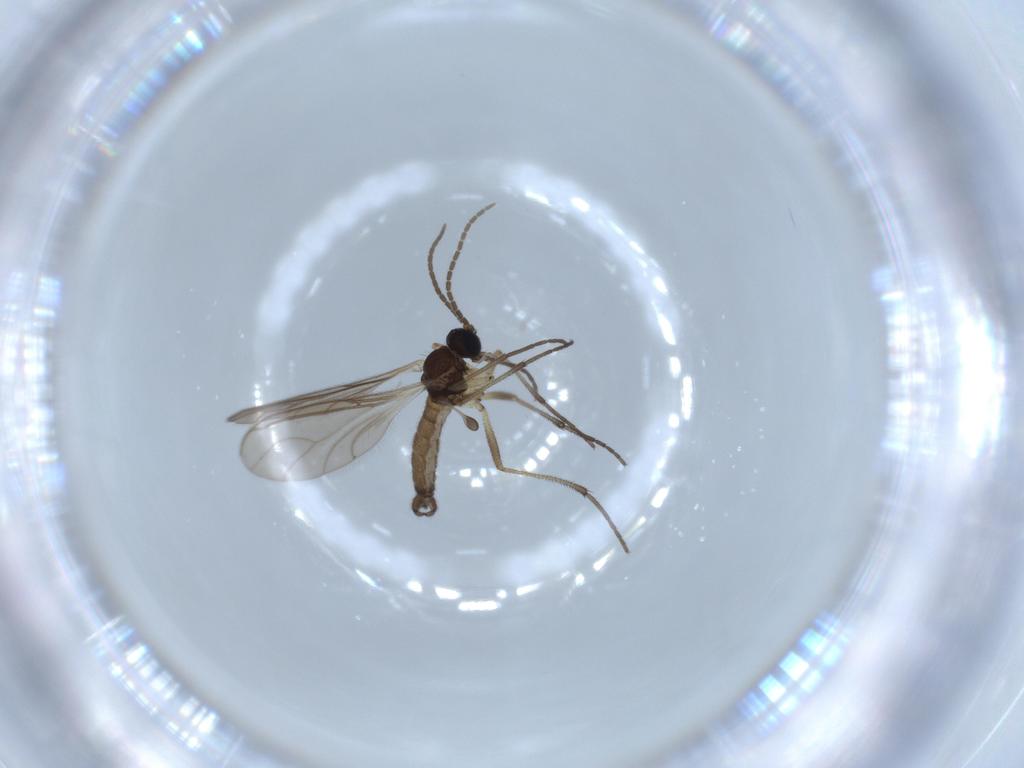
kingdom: Animalia
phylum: Arthropoda
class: Insecta
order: Diptera
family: Sciaridae
